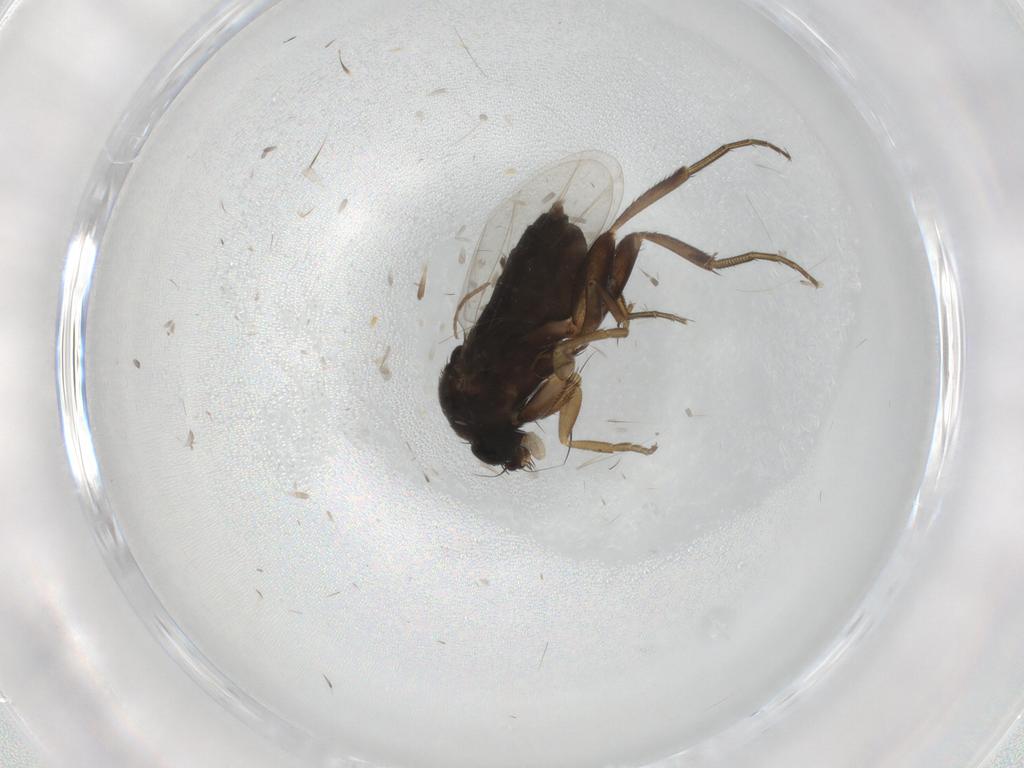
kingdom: Animalia
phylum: Arthropoda
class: Insecta
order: Diptera
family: Phoridae
